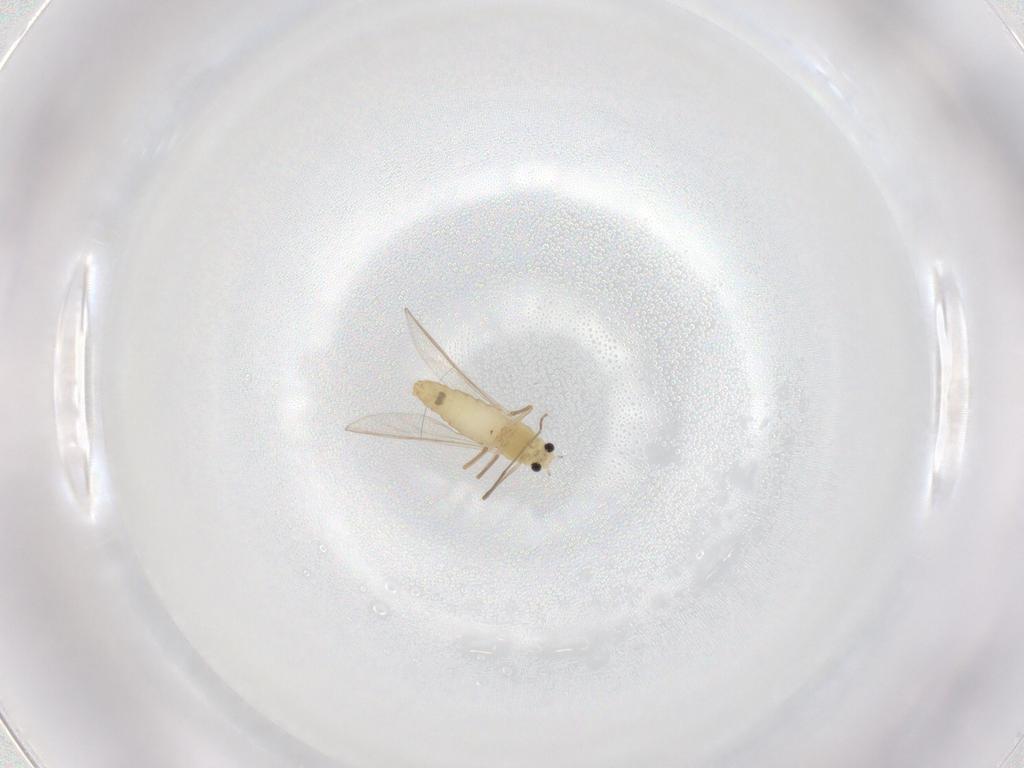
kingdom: Animalia
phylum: Arthropoda
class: Insecta
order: Diptera
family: Chironomidae
